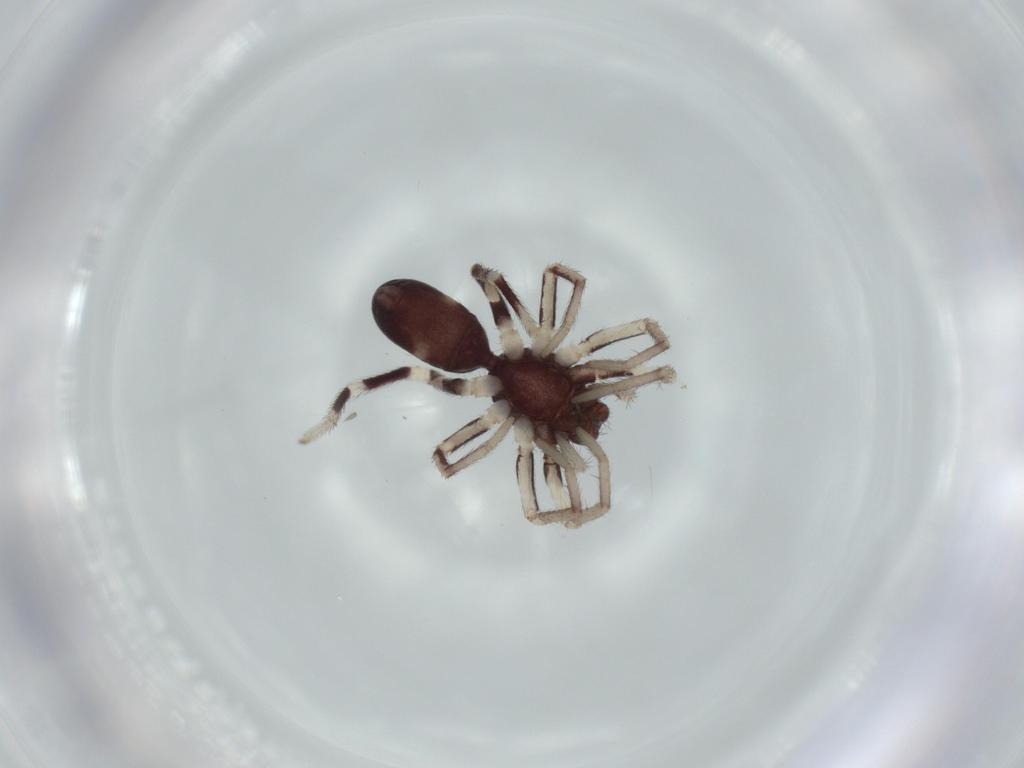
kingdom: Animalia
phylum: Arthropoda
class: Arachnida
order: Araneae
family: Linyphiidae
